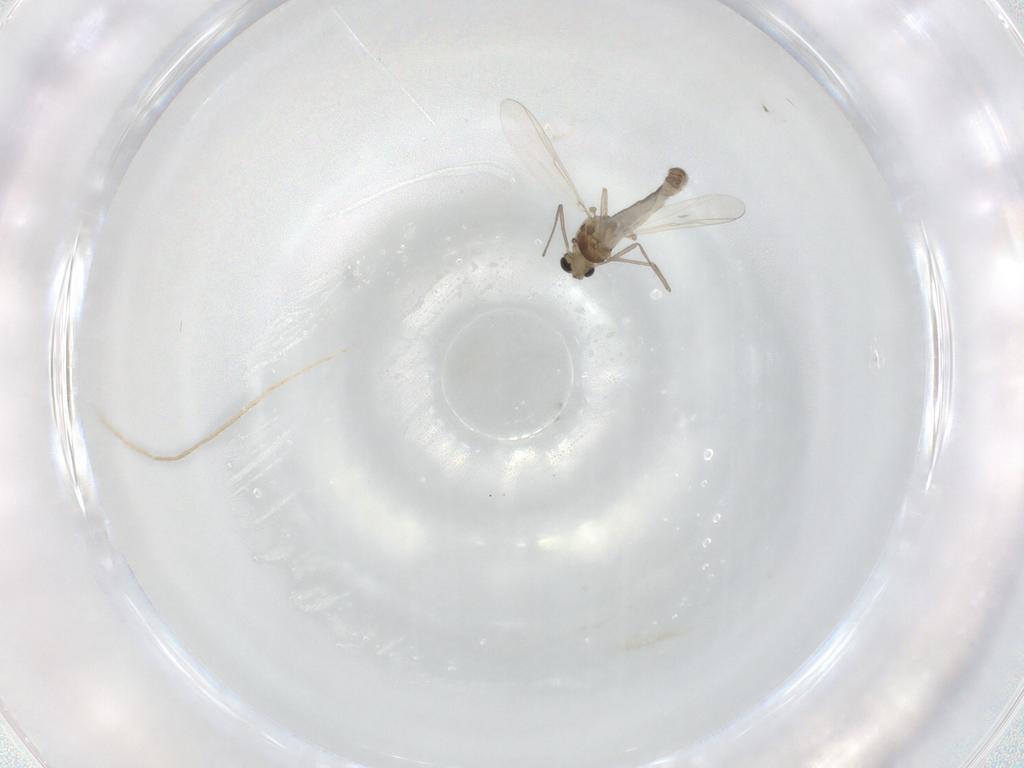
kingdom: Animalia
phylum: Arthropoda
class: Insecta
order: Diptera
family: Chironomidae
